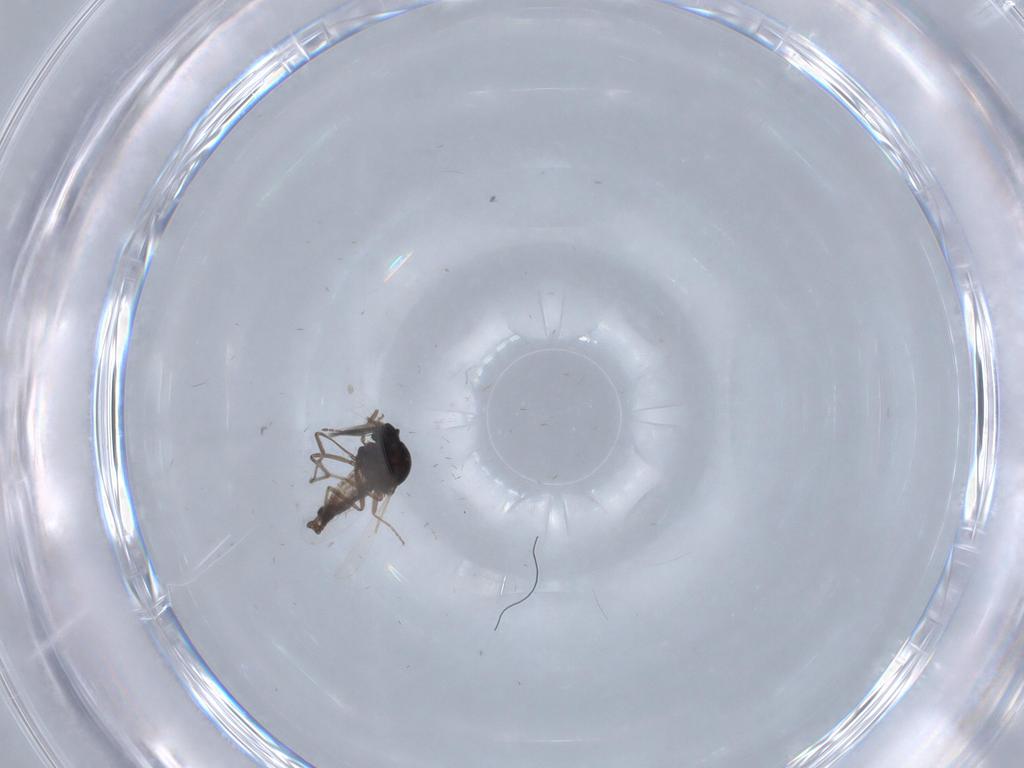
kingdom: Animalia
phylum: Arthropoda
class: Insecta
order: Diptera
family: Ceratopogonidae
